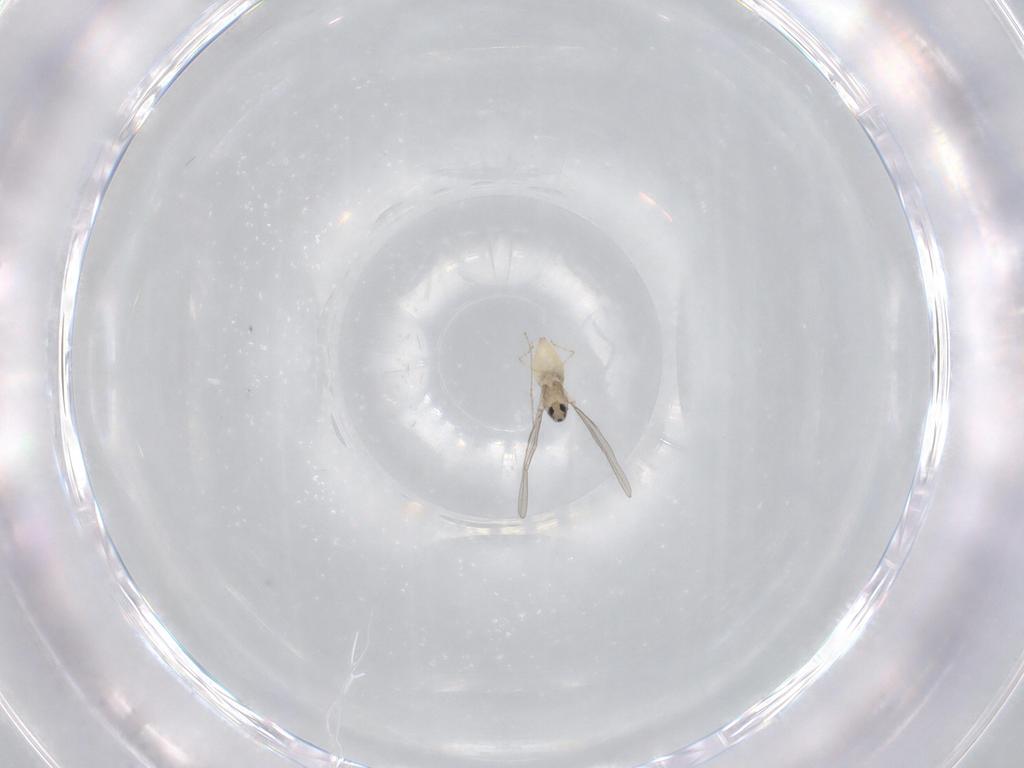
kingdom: Animalia
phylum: Arthropoda
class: Insecta
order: Diptera
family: Cecidomyiidae
